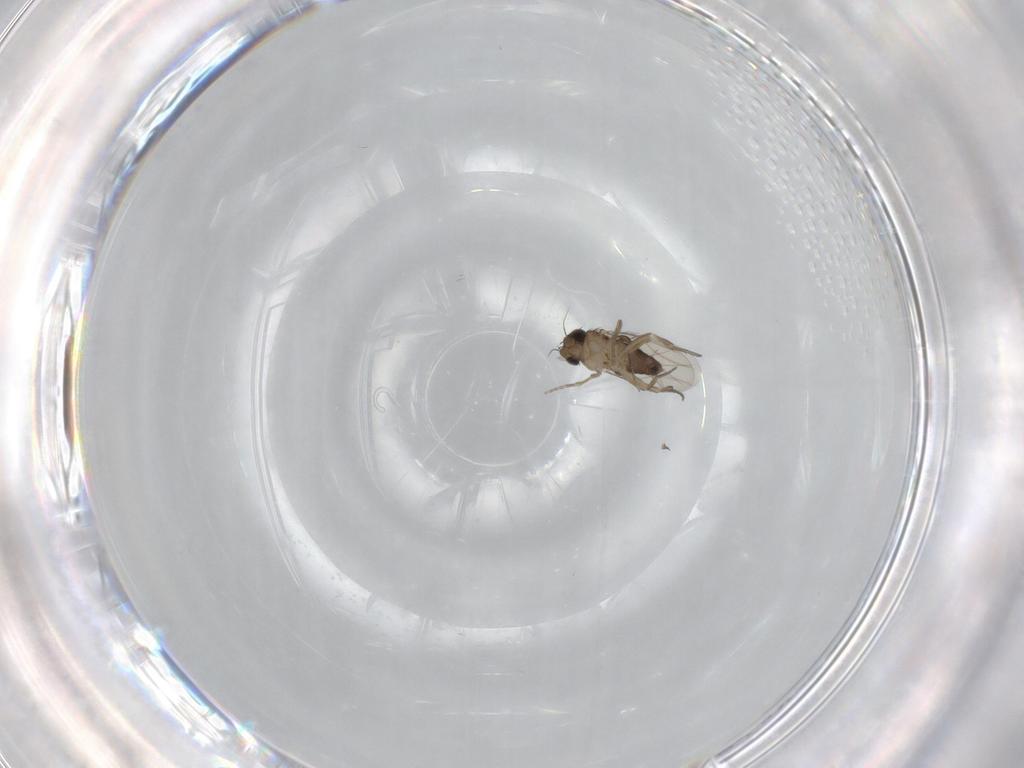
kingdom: Animalia
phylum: Arthropoda
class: Insecta
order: Diptera
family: Phoridae
